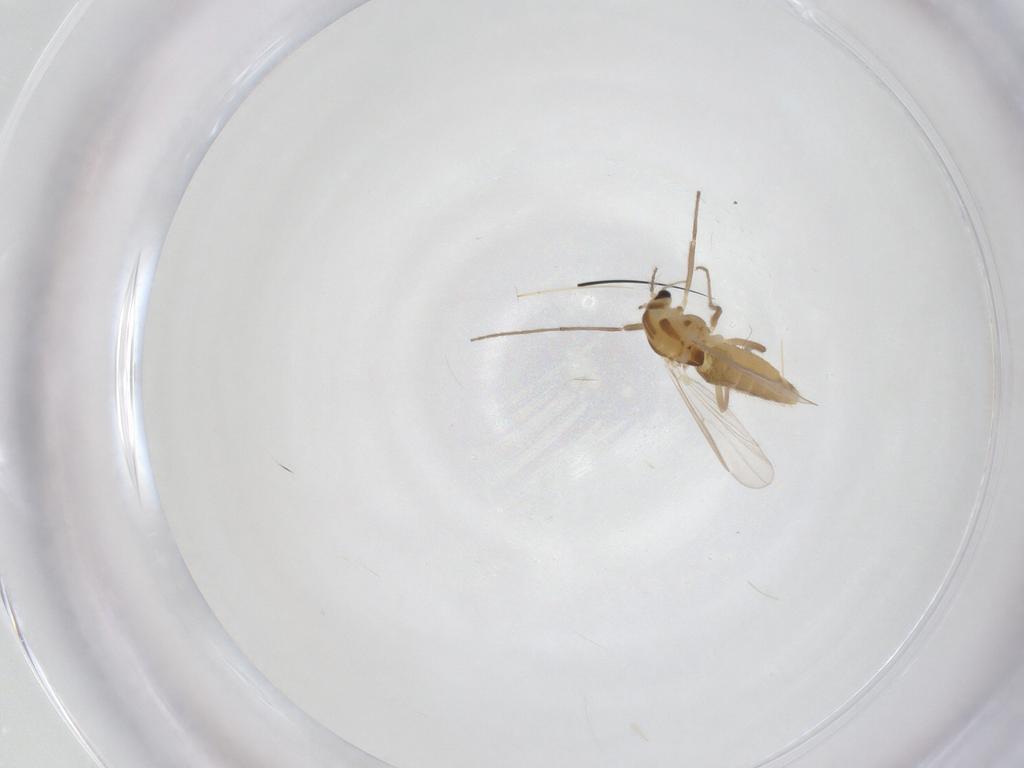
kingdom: Animalia
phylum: Arthropoda
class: Insecta
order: Diptera
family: Chironomidae
